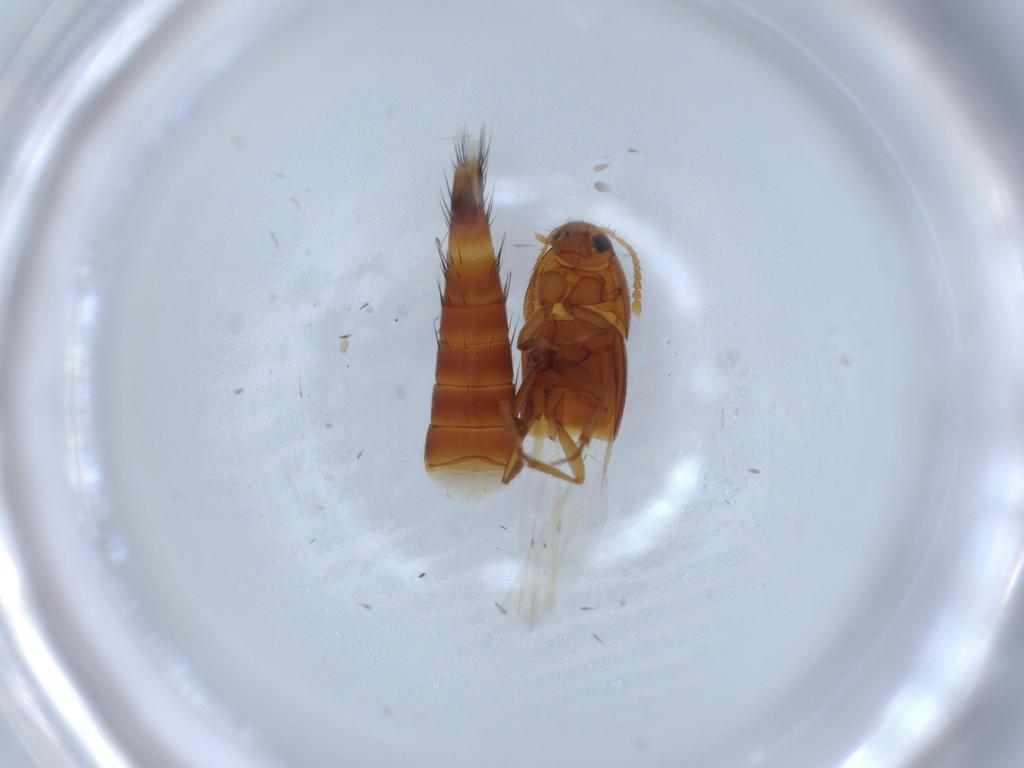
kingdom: Animalia
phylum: Arthropoda
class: Insecta
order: Coleoptera
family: Staphylinidae
